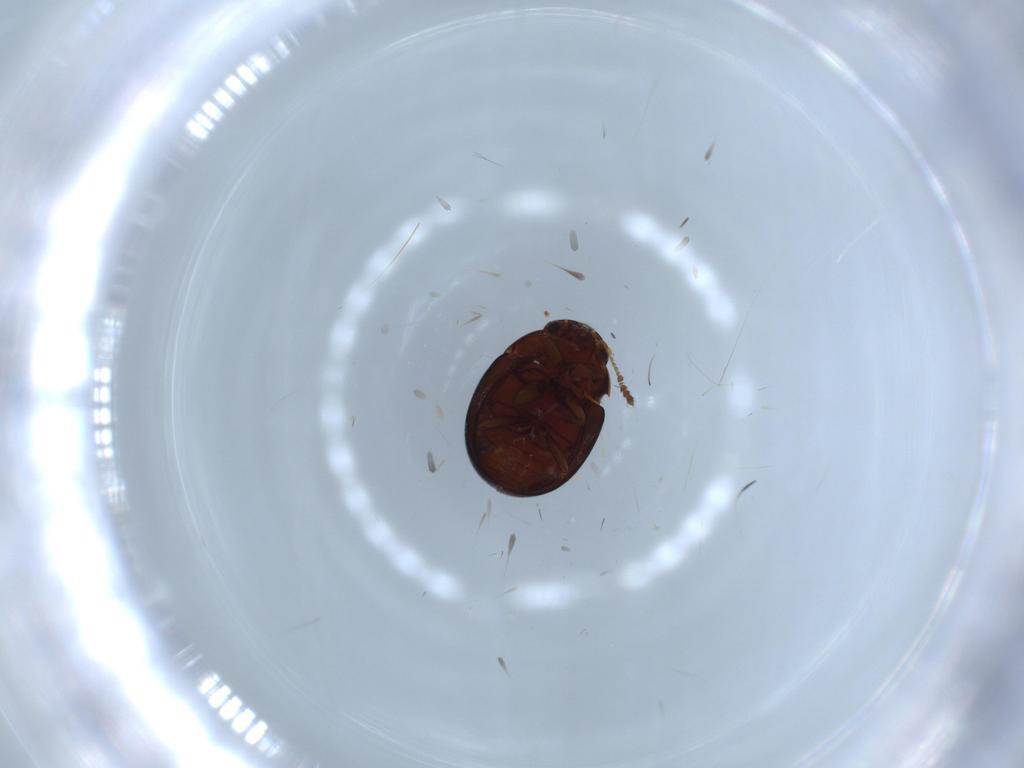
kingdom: Animalia
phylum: Arthropoda
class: Insecta
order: Coleoptera
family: Leiodidae
